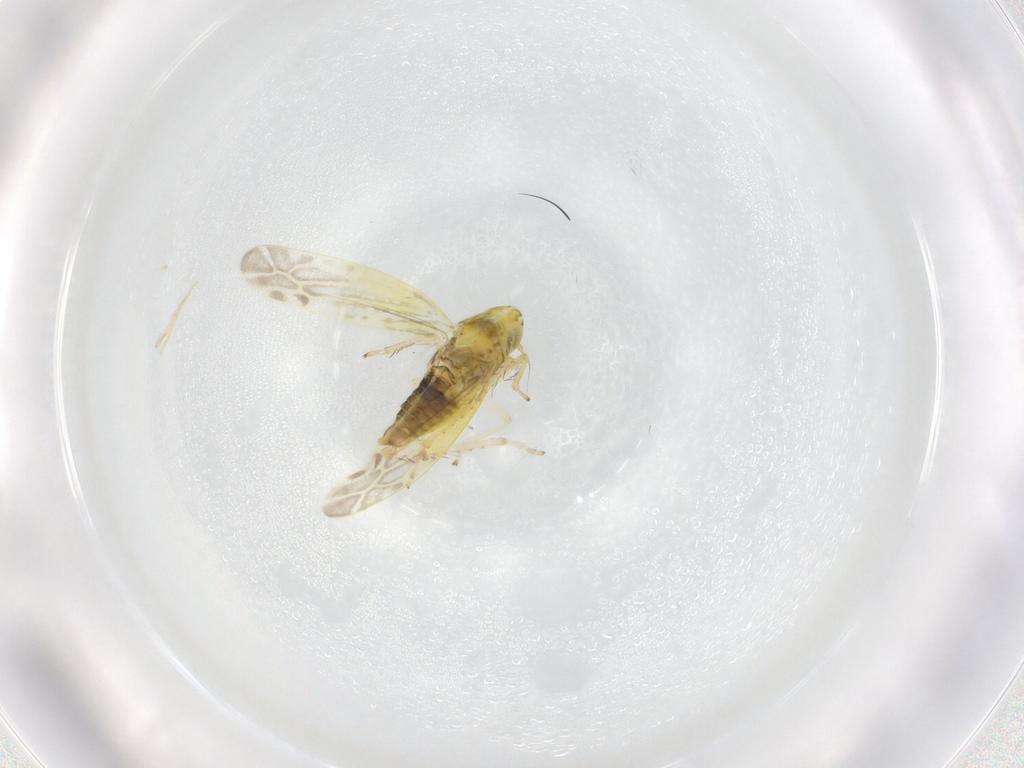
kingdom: Animalia
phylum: Arthropoda
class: Insecta
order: Hemiptera
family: Cicadellidae
